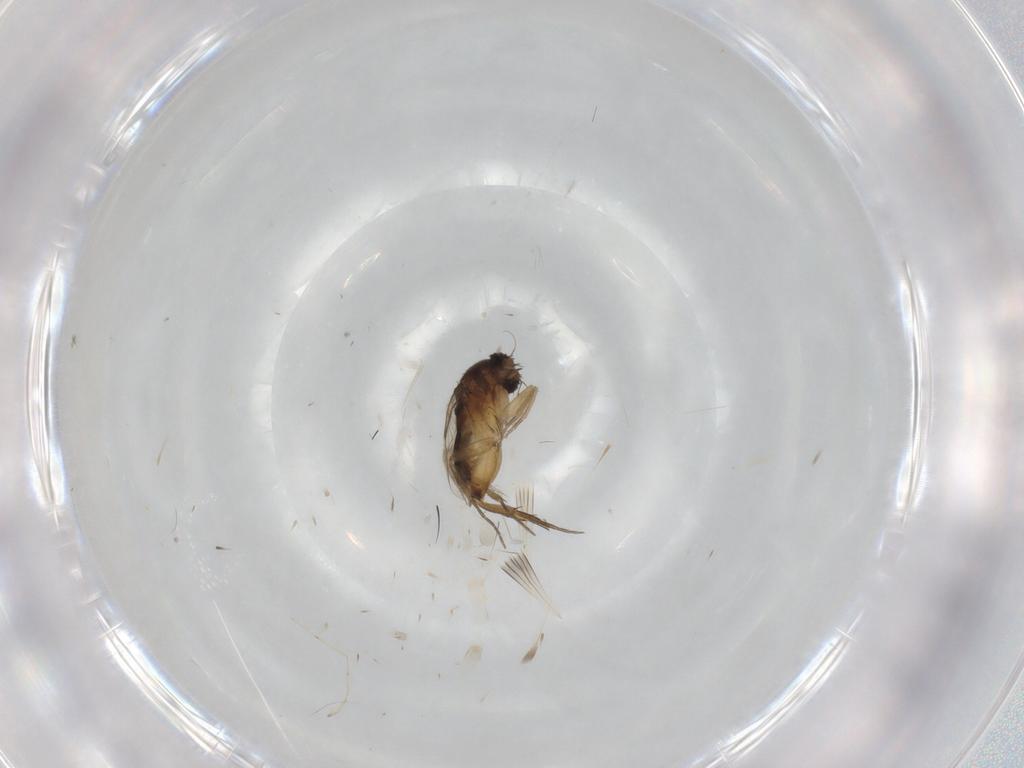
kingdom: Animalia
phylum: Arthropoda
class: Insecta
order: Diptera
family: Chironomidae
